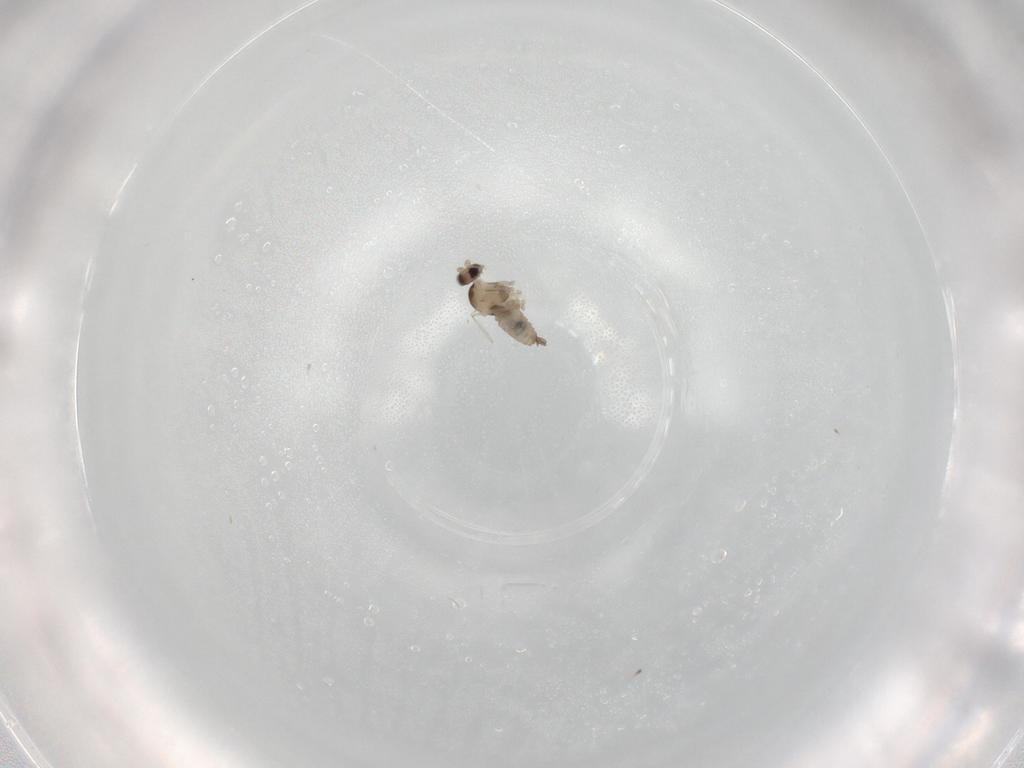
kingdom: Animalia
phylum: Arthropoda
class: Insecta
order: Diptera
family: Cecidomyiidae
